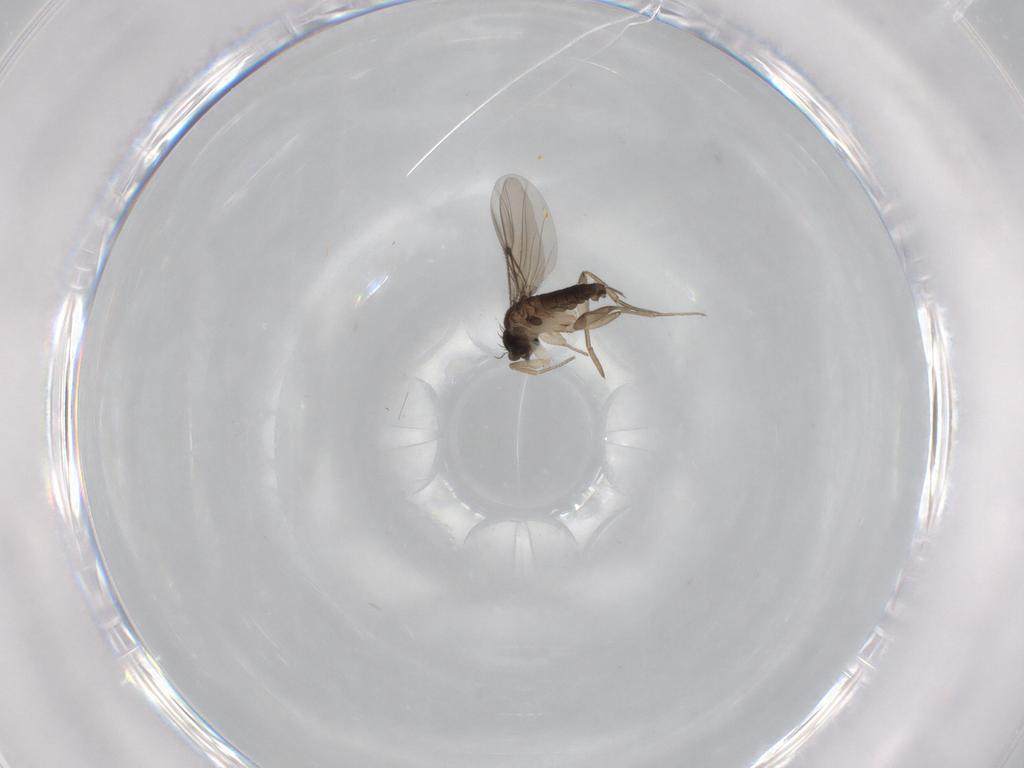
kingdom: Animalia
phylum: Arthropoda
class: Insecta
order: Diptera
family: Phoridae
